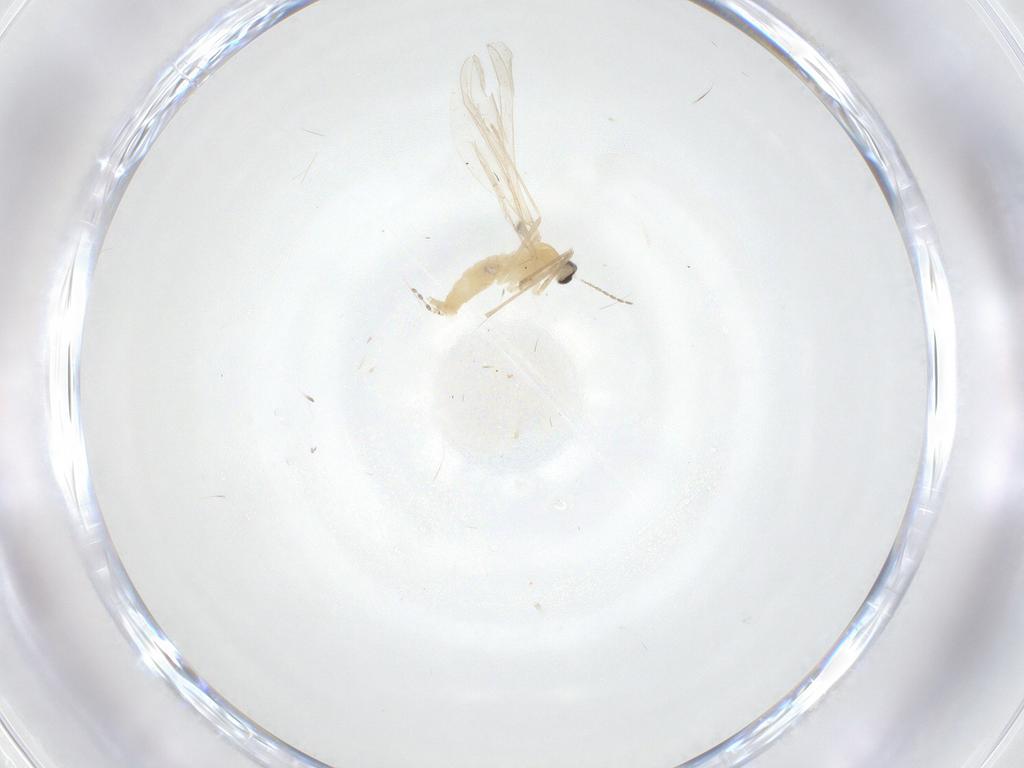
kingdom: Animalia
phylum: Arthropoda
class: Insecta
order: Diptera
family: Cecidomyiidae
